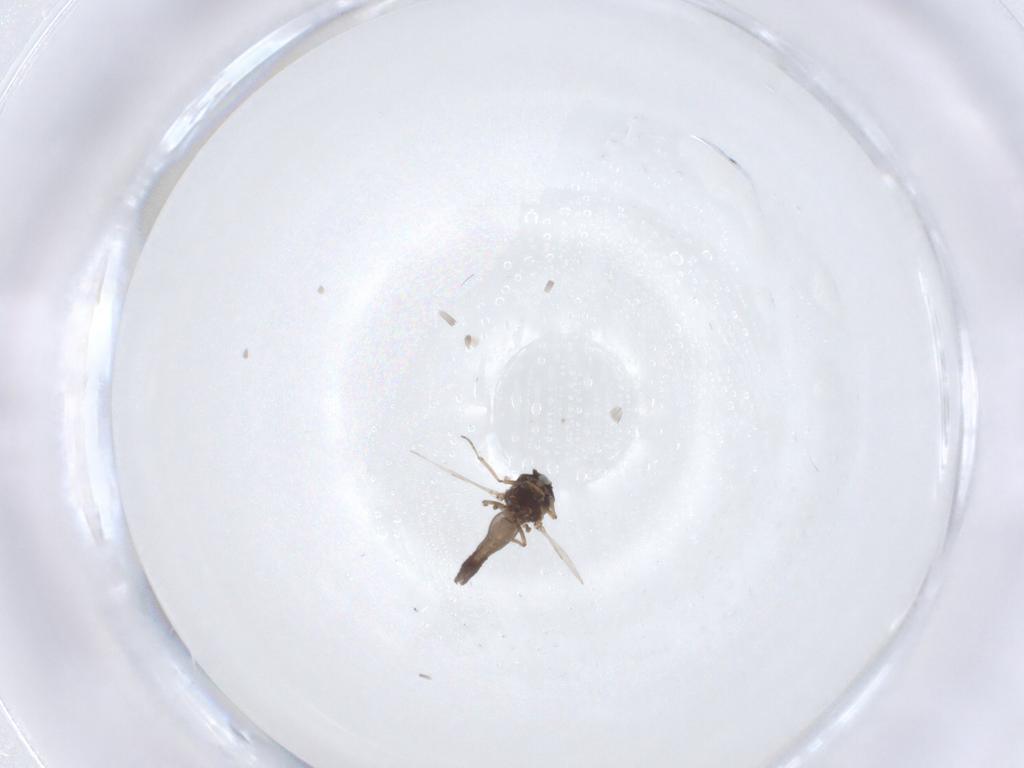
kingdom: Animalia
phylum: Arthropoda
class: Insecta
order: Diptera
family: Ceratopogonidae
